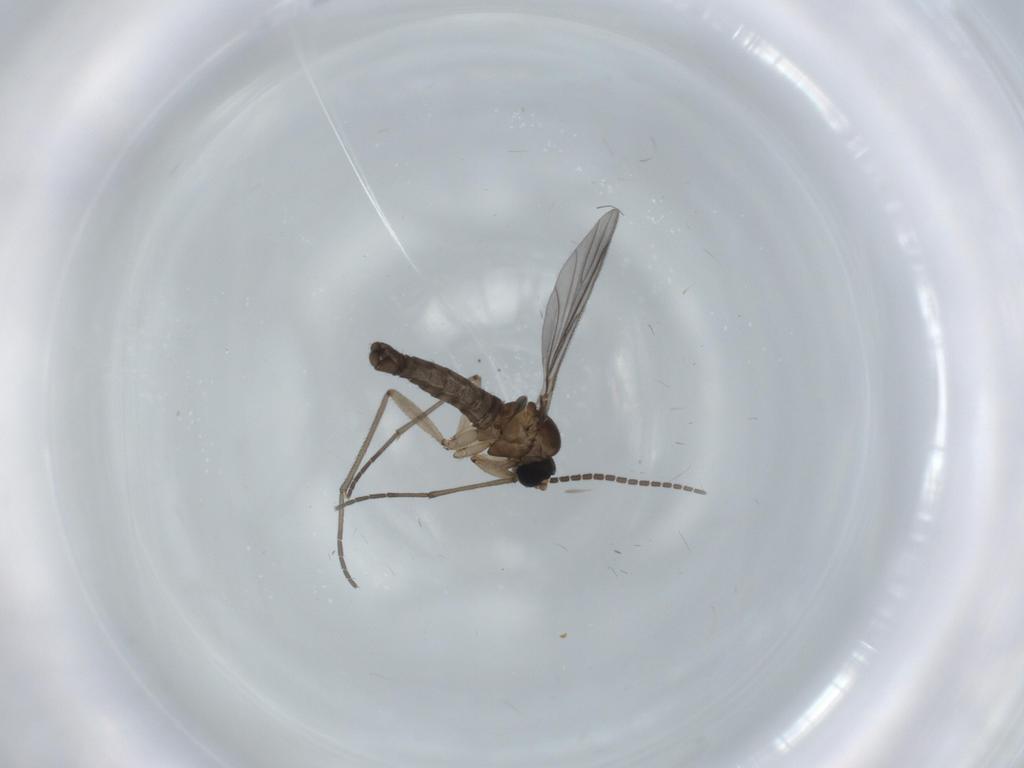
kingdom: Animalia
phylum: Arthropoda
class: Insecta
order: Diptera
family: Sciaridae
